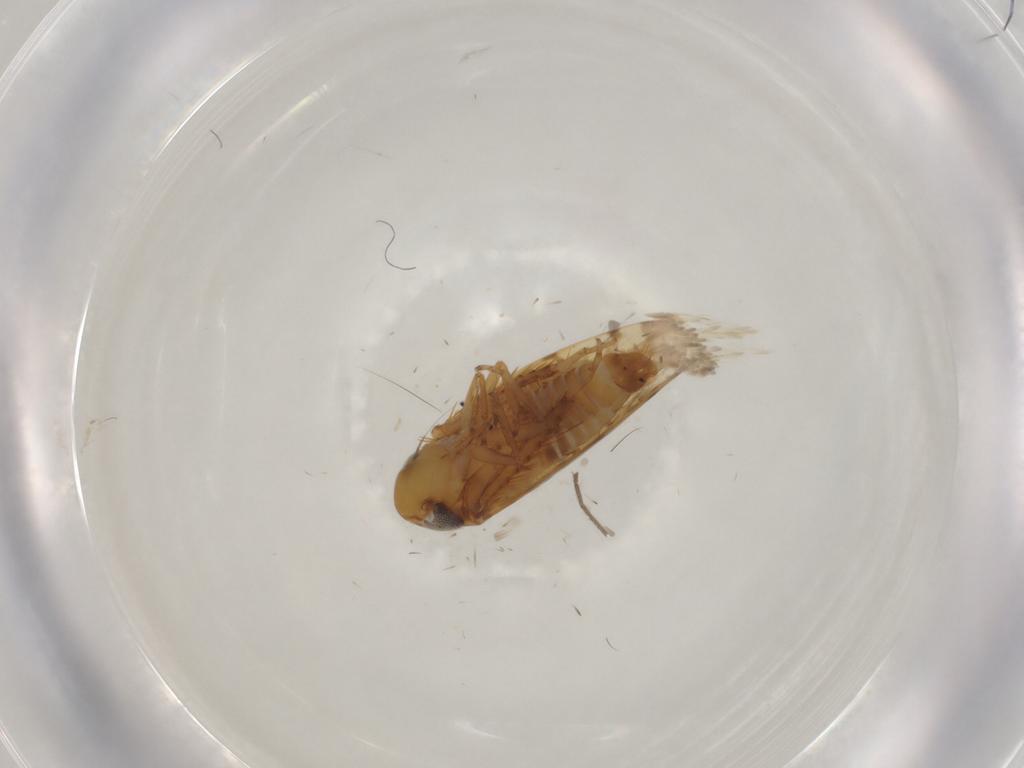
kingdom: Animalia
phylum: Arthropoda
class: Insecta
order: Hemiptera
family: Cicadellidae
